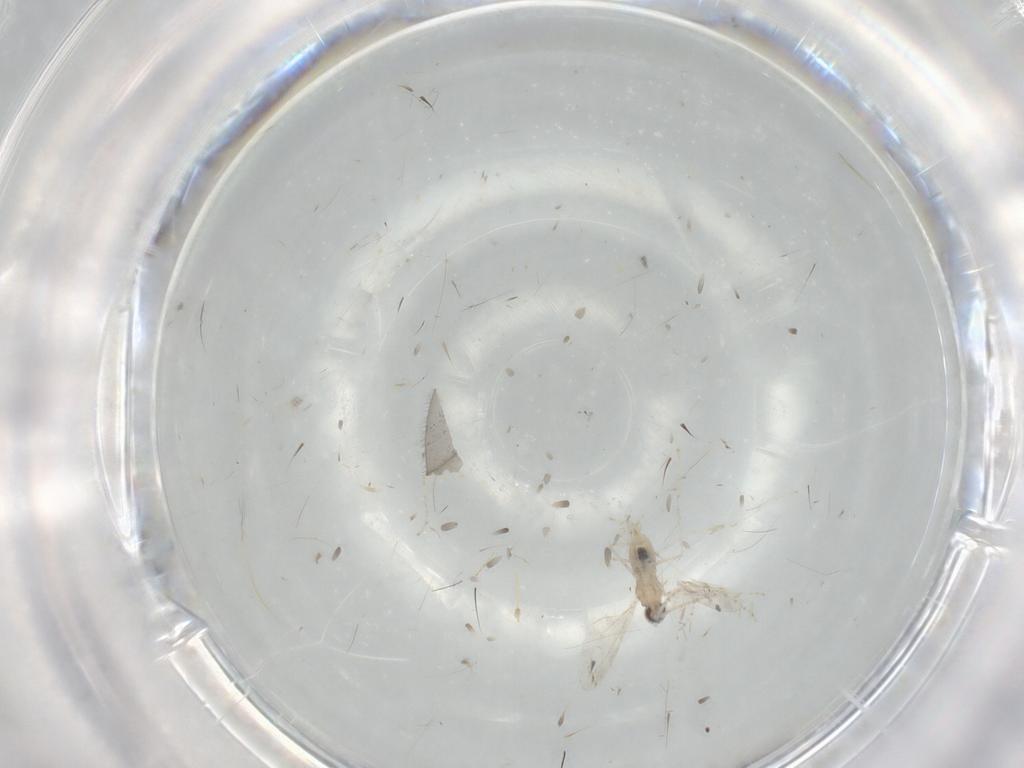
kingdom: Animalia
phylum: Arthropoda
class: Insecta
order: Diptera
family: Cecidomyiidae
